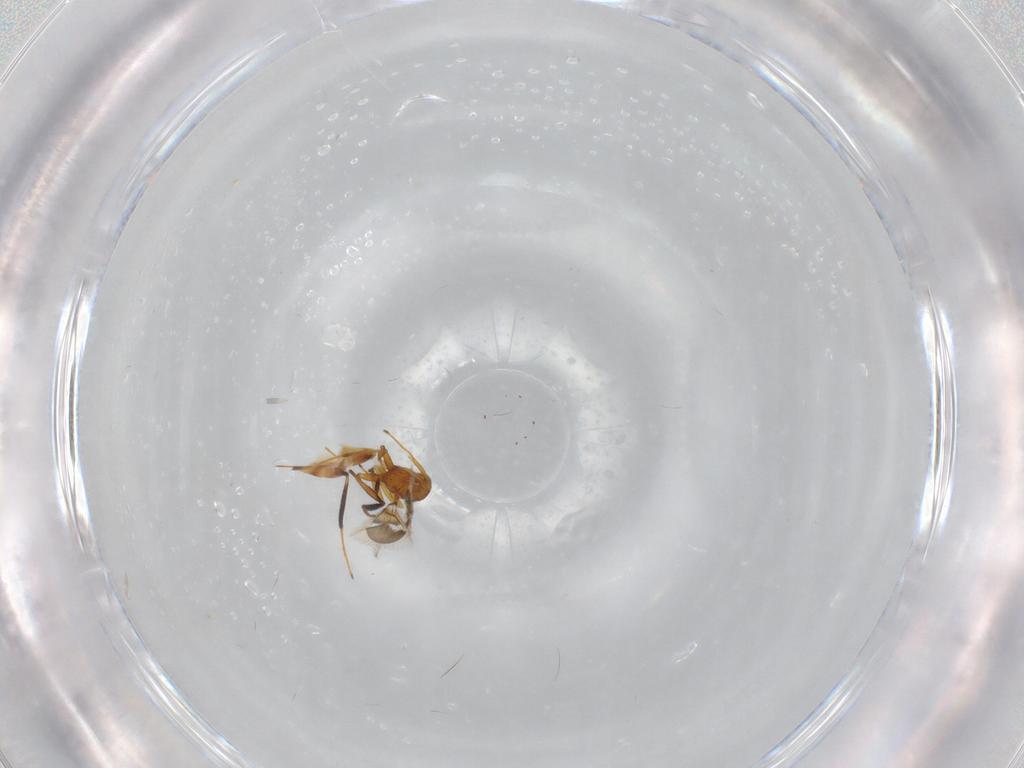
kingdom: Animalia
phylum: Arthropoda
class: Insecta
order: Hymenoptera
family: Mymaridae
